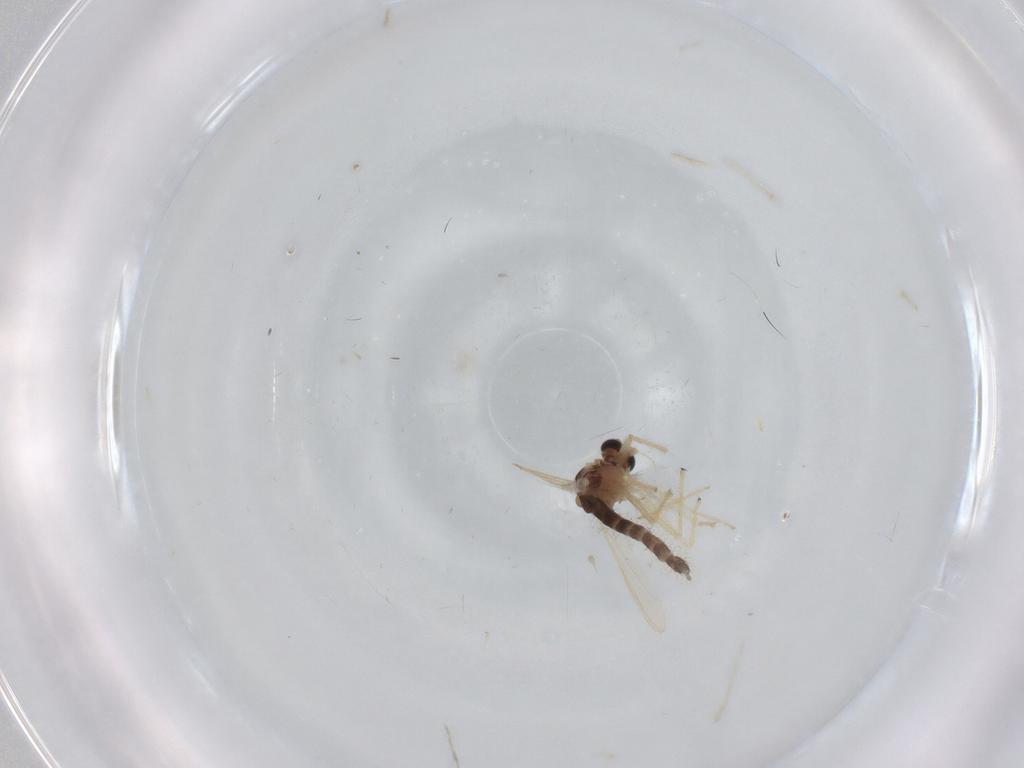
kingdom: Animalia
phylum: Arthropoda
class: Insecta
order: Diptera
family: Chironomidae
